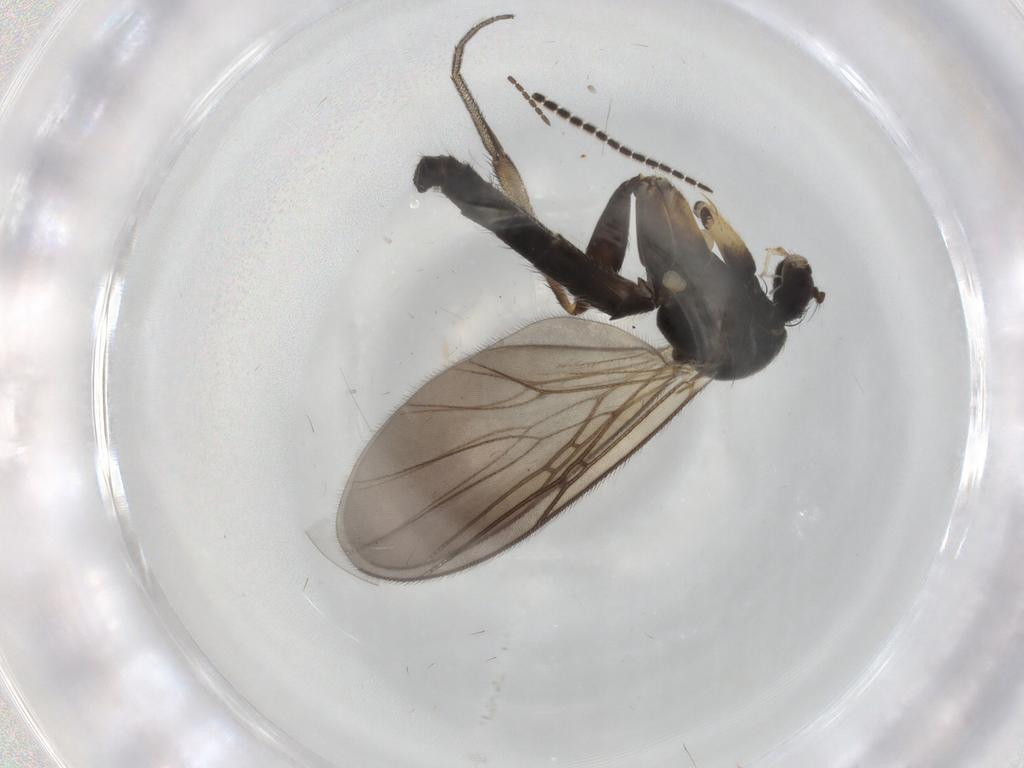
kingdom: Animalia
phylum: Arthropoda
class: Insecta
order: Diptera
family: Mycetophilidae
